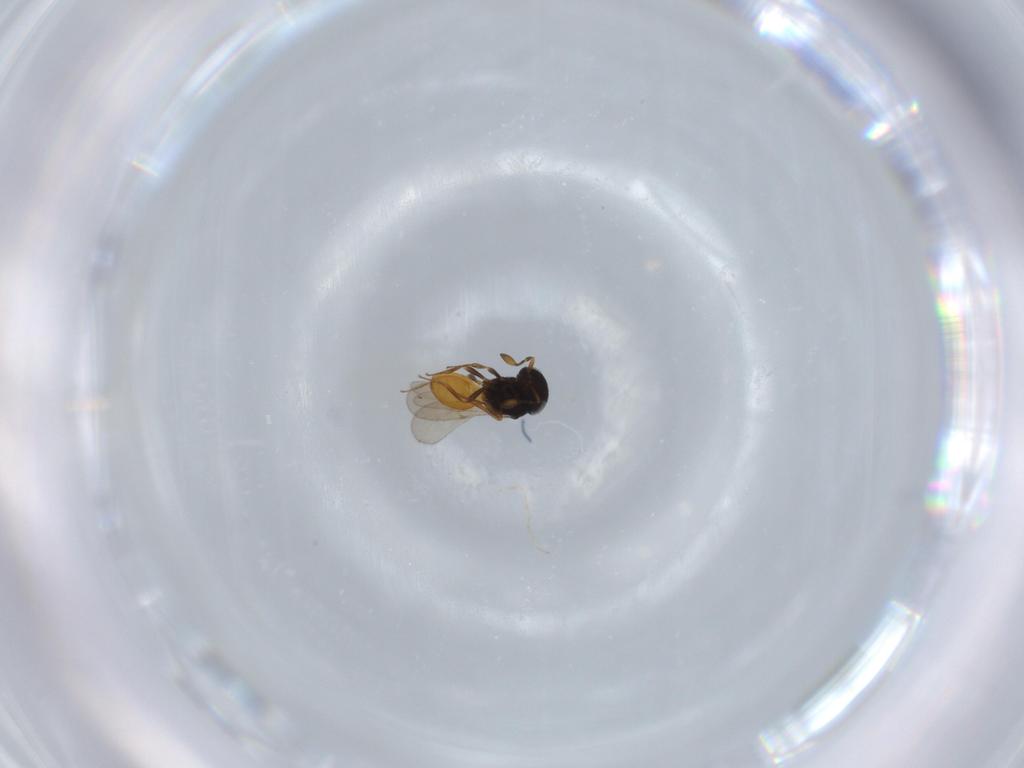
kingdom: Animalia
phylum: Arthropoda
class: Insecta
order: Hymenoptera
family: Scelionidae
